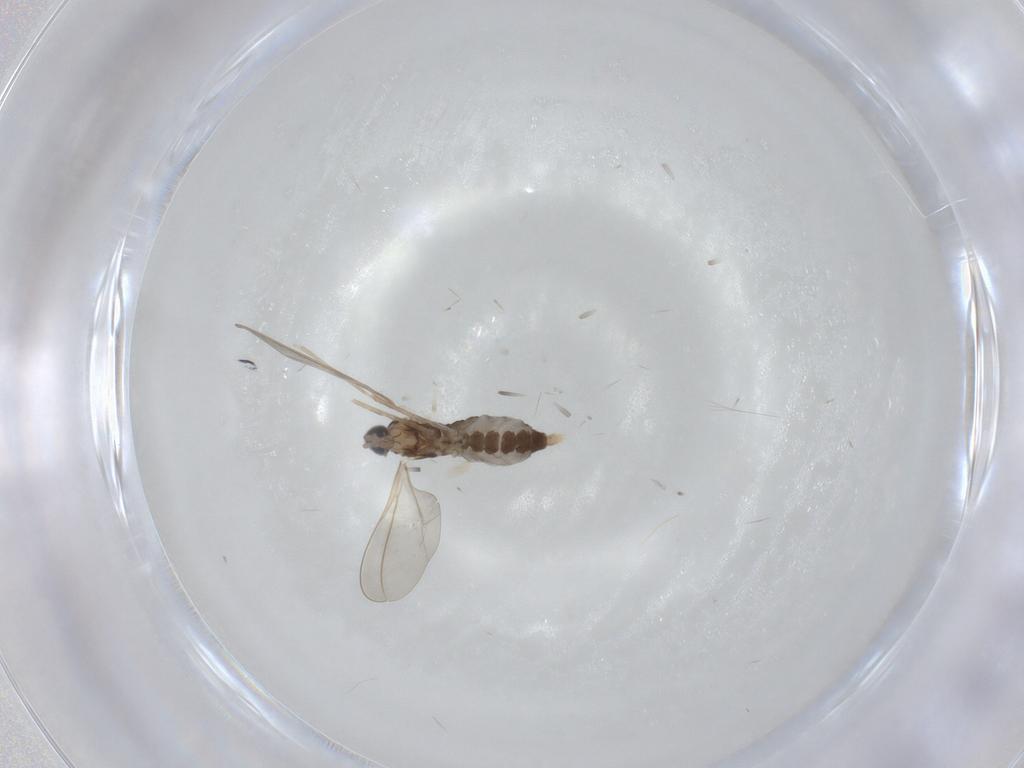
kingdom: Animalia
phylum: Arthropoda
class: Insecta
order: Diptera
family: Cecidomyiidae
